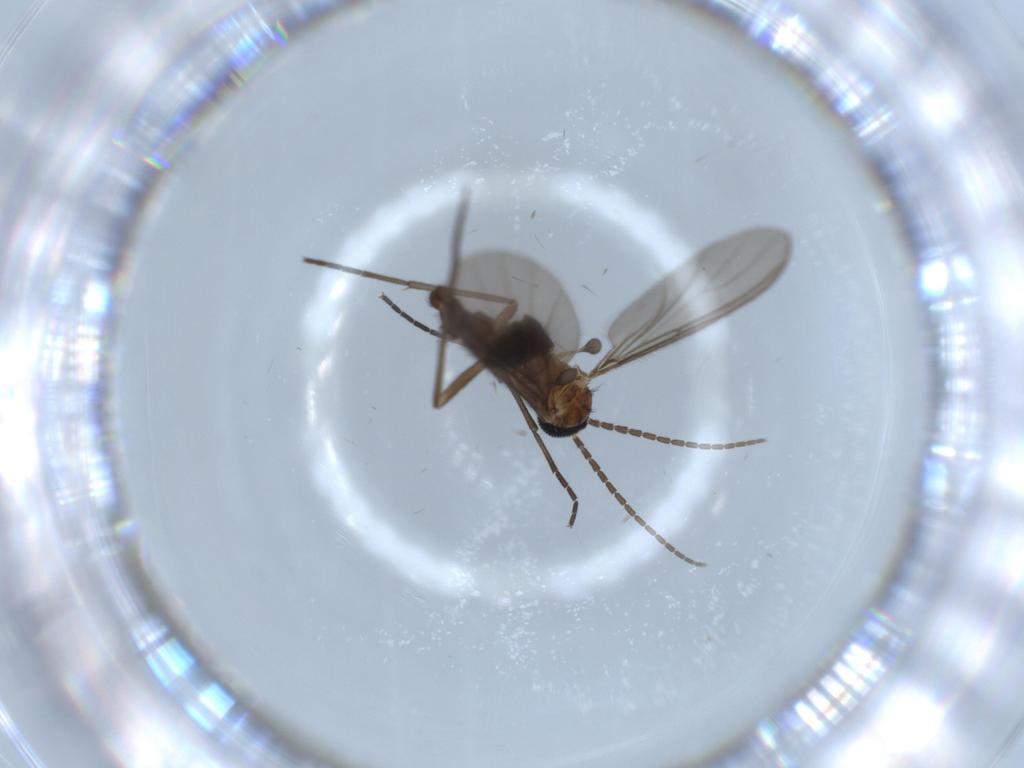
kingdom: Animalia
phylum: Arthropoda
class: Insecta
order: Diptera
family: Sciaridae
